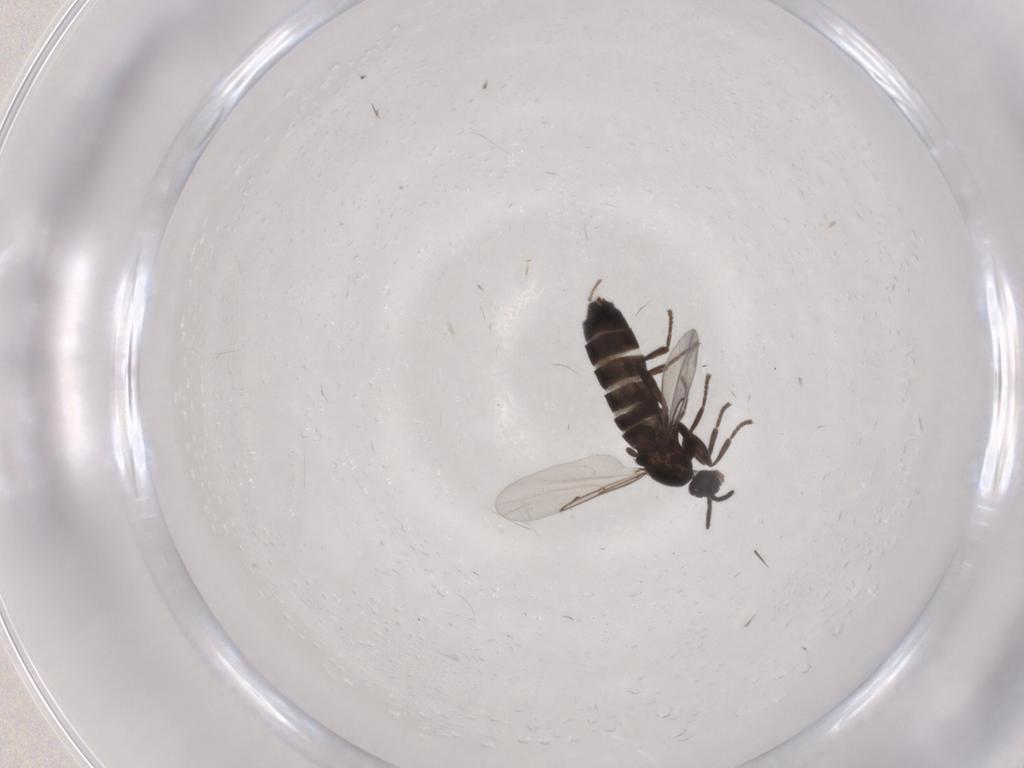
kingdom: Animalia
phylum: Arthropoda
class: Insecta
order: Diptera
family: Scatopsidae
